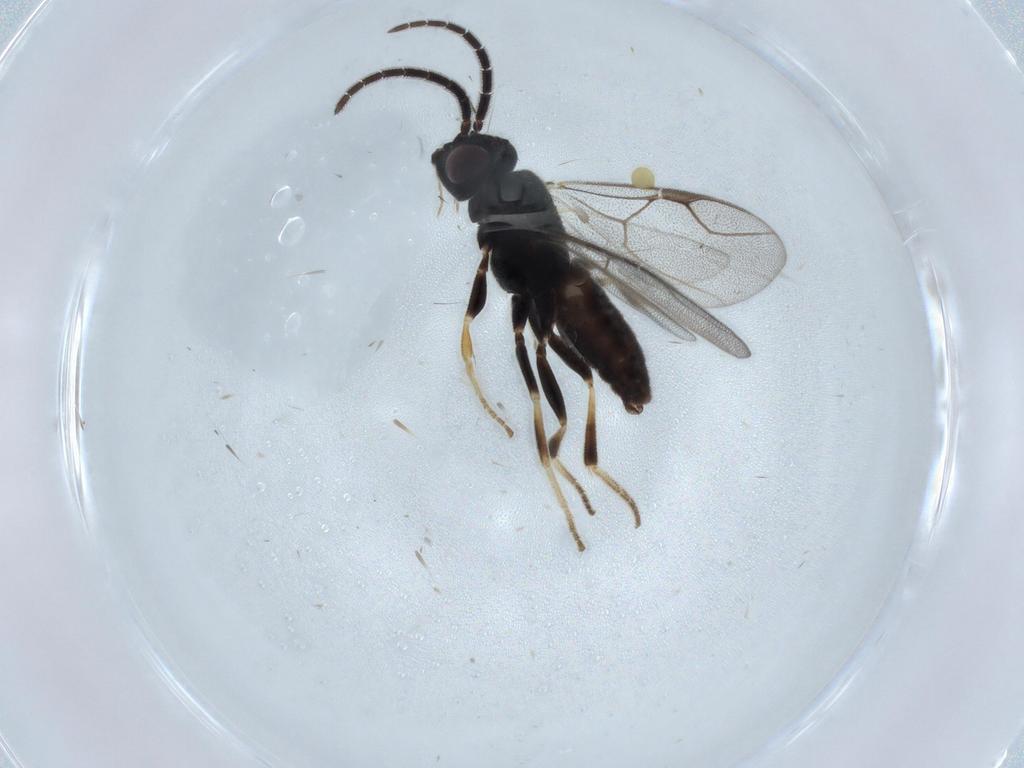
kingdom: Animalia
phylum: Arthropoda
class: Insecta
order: Hymenoptera
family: Dryinidae
